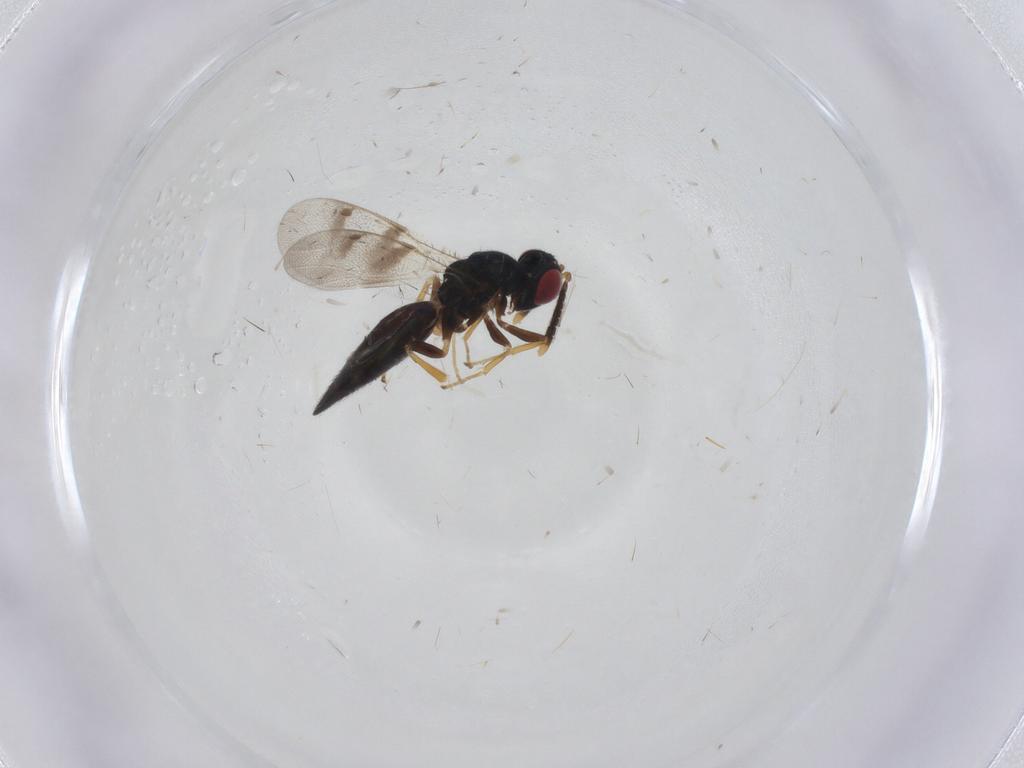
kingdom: Animalia
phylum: Arthropoda
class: Insecta
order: Hymenoptera
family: Pteromalidae
